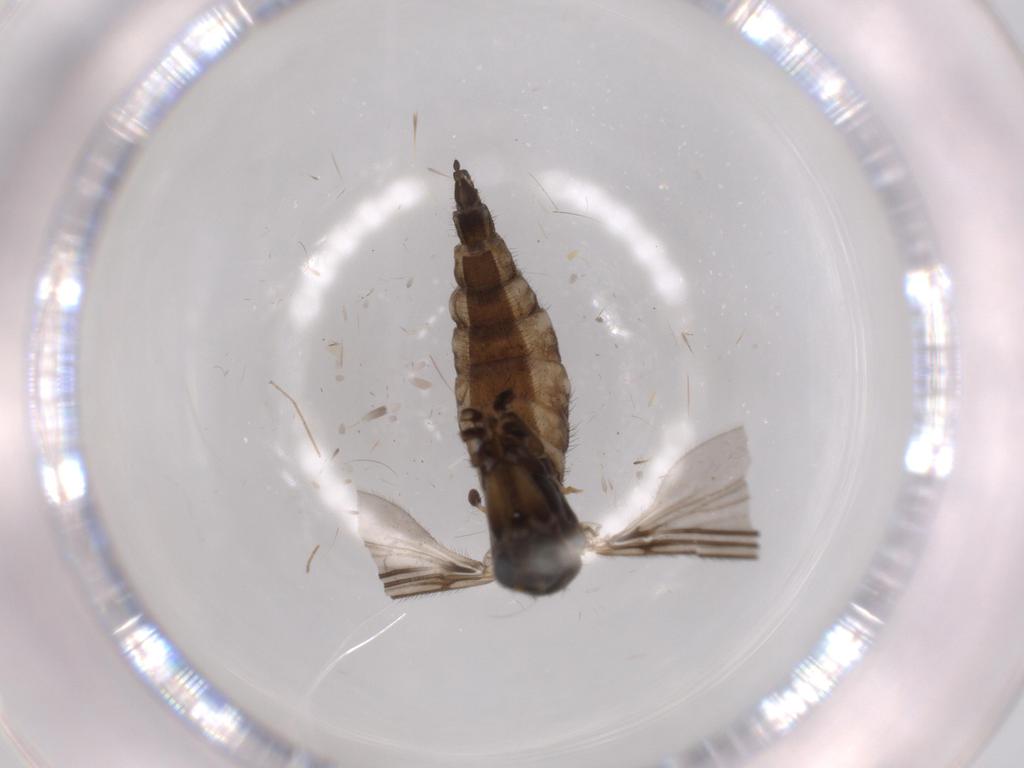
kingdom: Animalia
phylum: Arthropoda
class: Insecta
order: Diptera
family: Sciaridae
